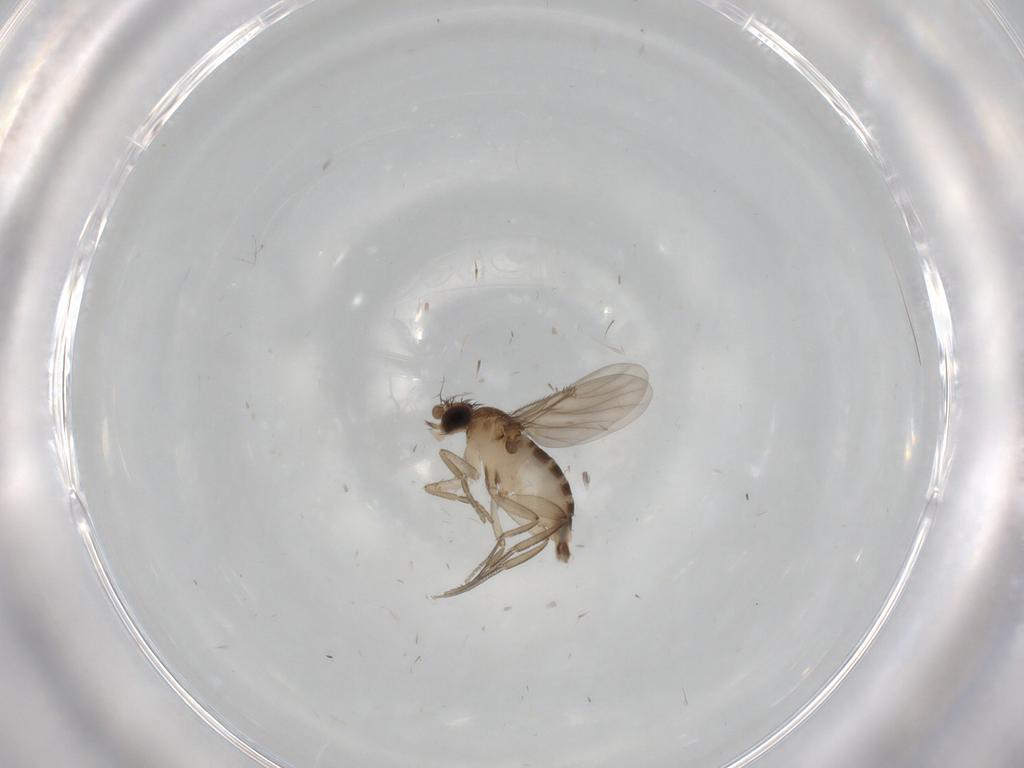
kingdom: Animalia
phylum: Arthropoda
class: Insecta
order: Diptera
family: Phoridae
